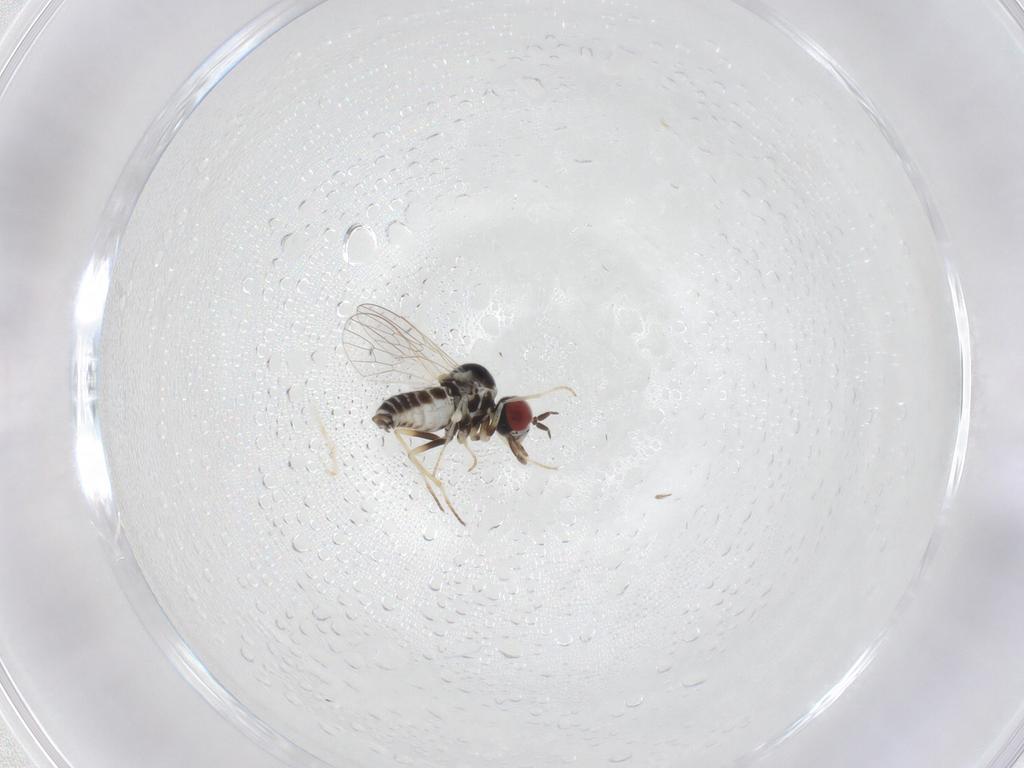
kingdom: Animalia
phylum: Arthropoda
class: Insecta
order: Diptera
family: Bombyliidae
